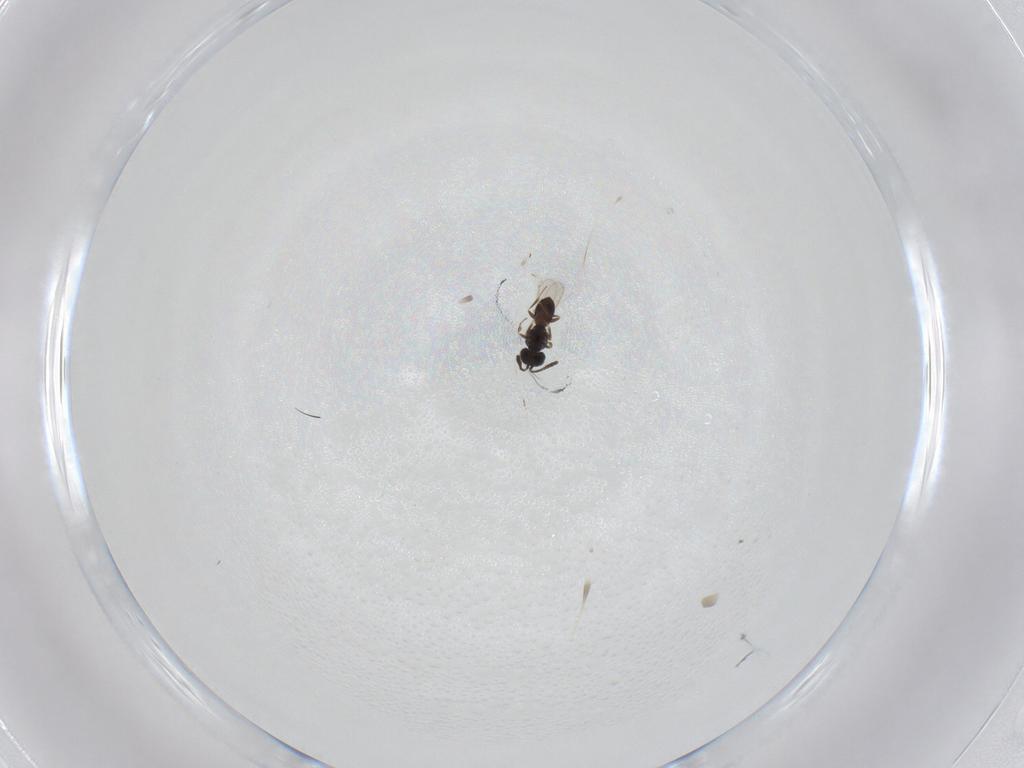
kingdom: Animalia
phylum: Arthropoda
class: Insecta
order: Hymenoptera
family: Scelionidae
